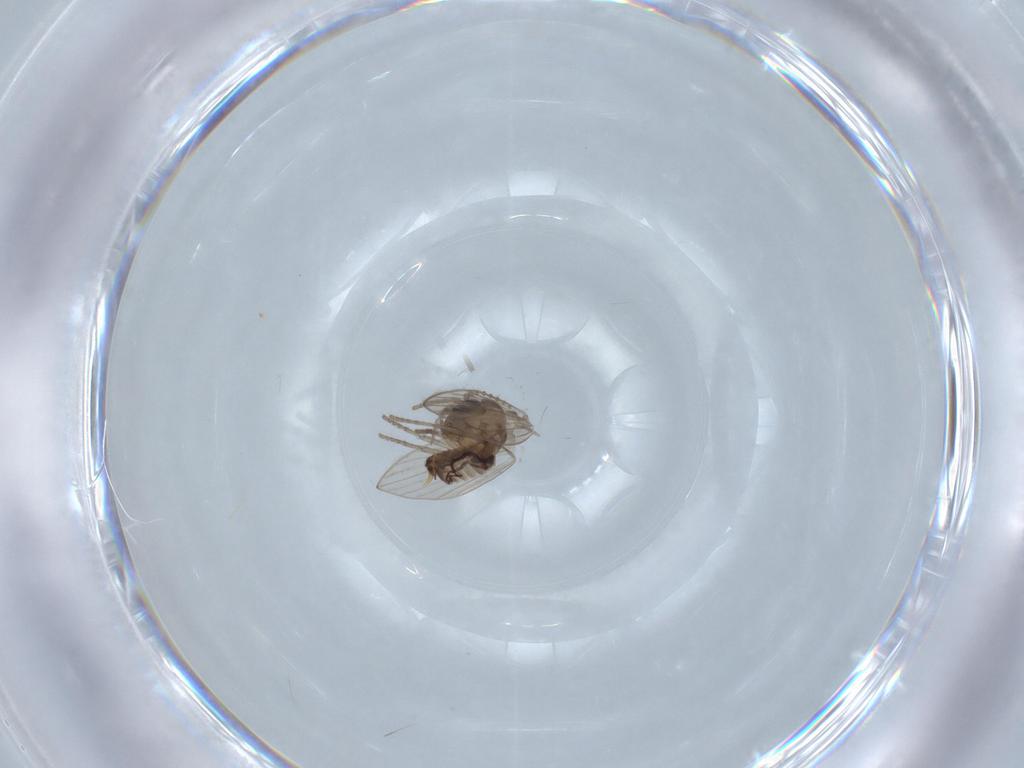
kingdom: Animalia
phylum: Arthropoda
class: Insecta
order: Diptera
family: Psychodidae
